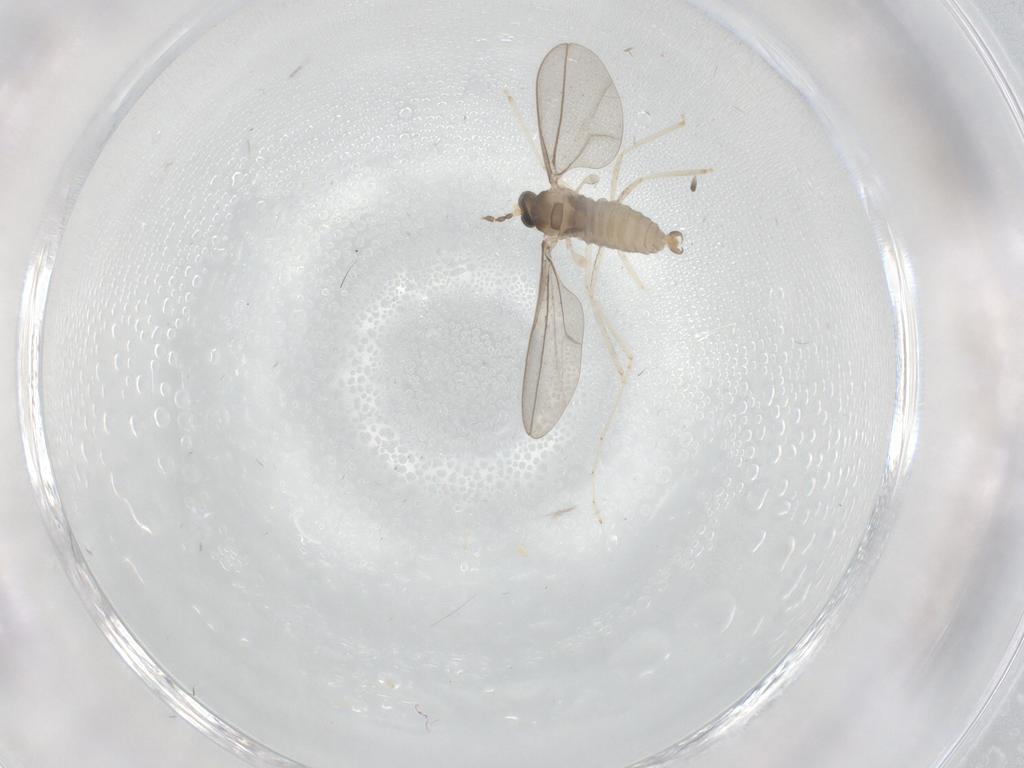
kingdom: Animalia
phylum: Arthropoda
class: Insecta
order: Diptera
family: Cecidomyiidae
